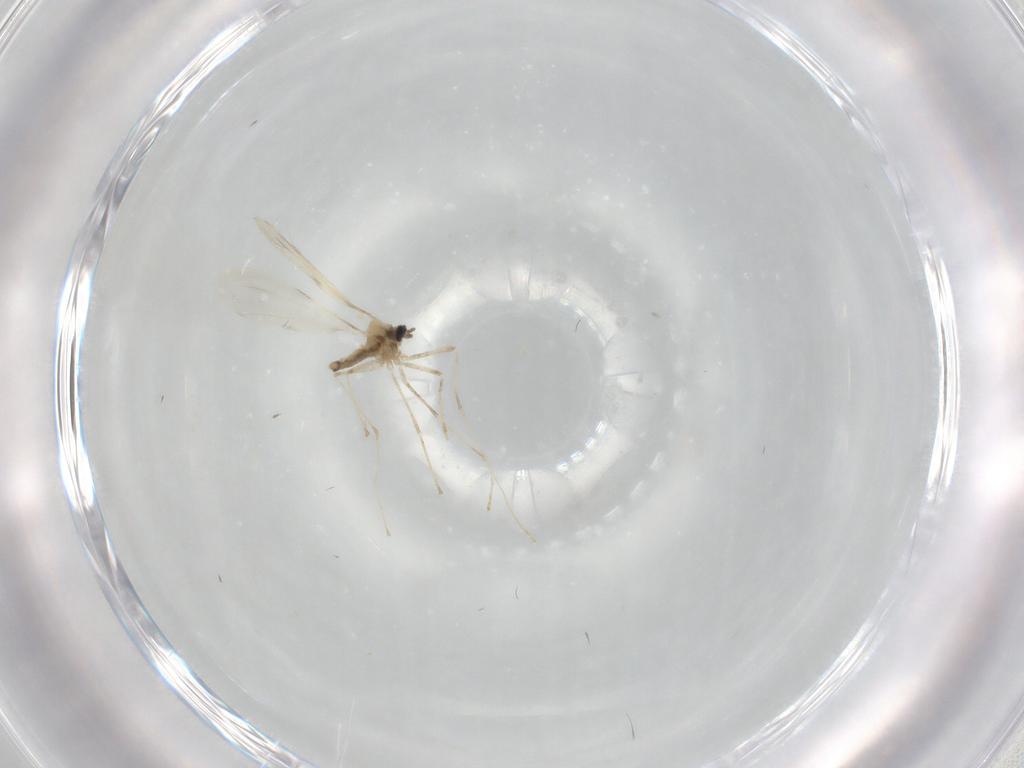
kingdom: Animalia
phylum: Arthropoda
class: Insecta
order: Diptera
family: Cecidomyiidae
